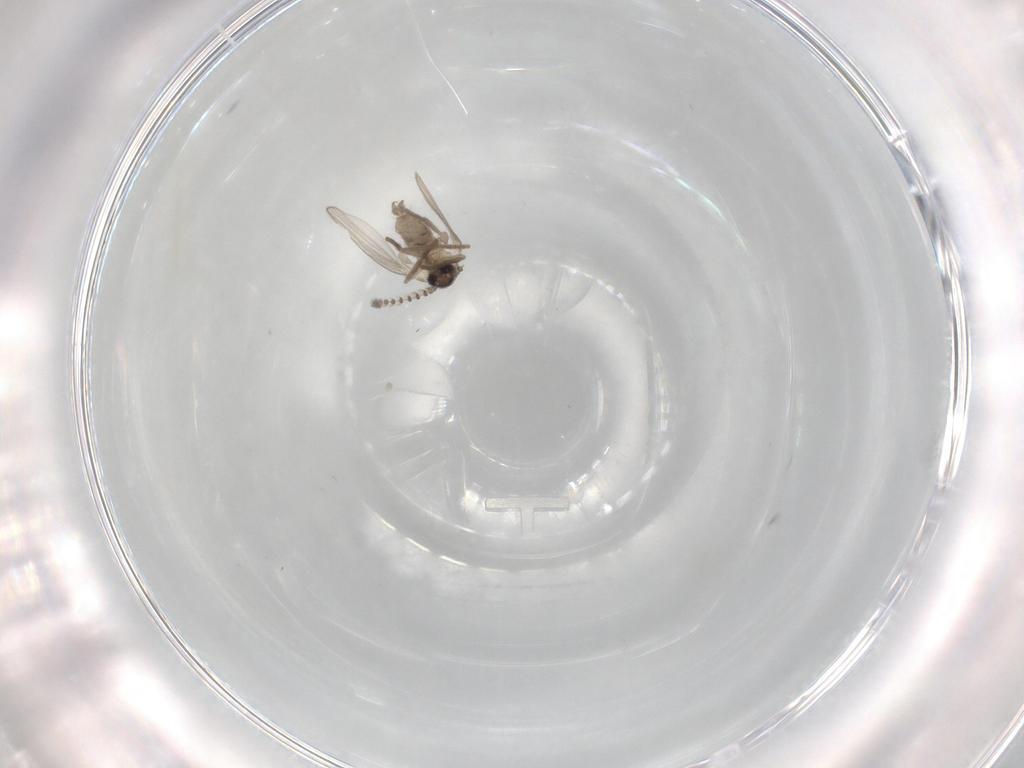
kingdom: Animalia
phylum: Arthropoda
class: Insecta
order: Diptera
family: Psychodidae
